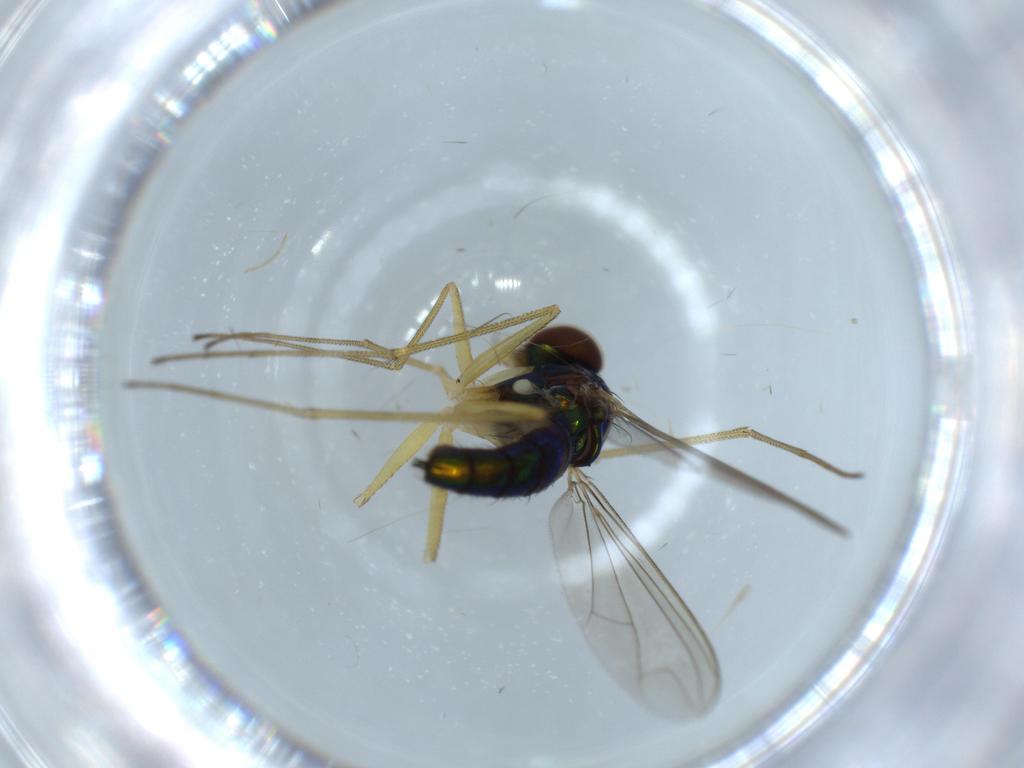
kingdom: Animalia
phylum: Arthropoda
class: Insecta
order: Diptera
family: Dolichopodidae
